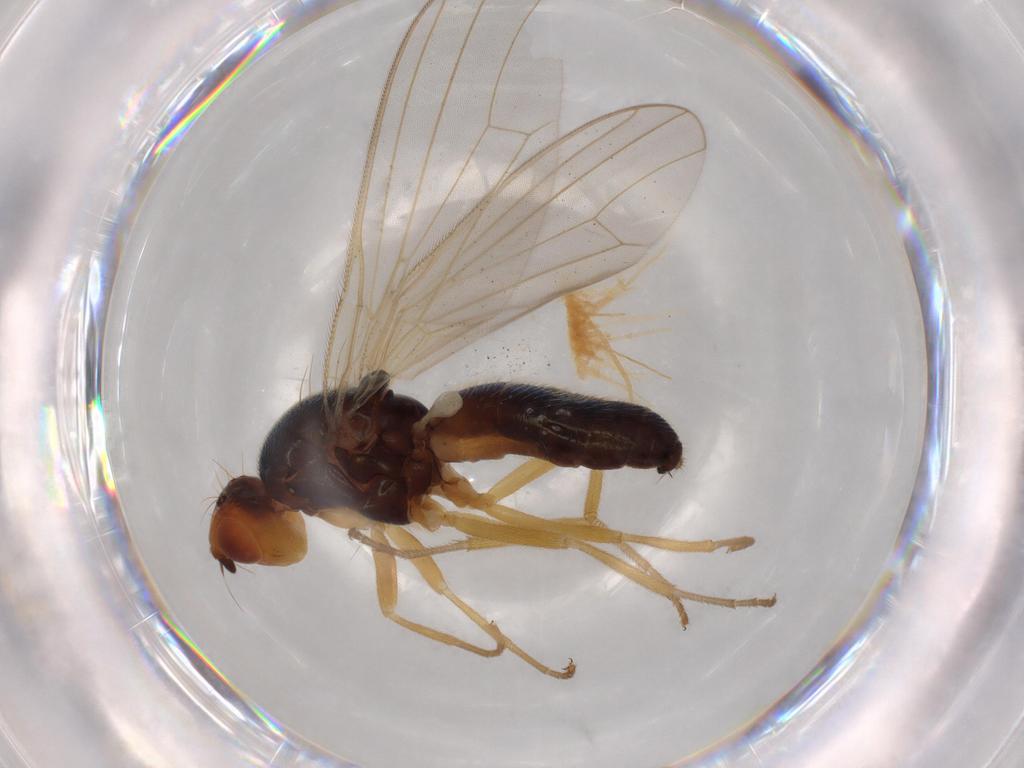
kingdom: Animalia
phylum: Arthropoda
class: Insecta
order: Diptera
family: Hybotidae
